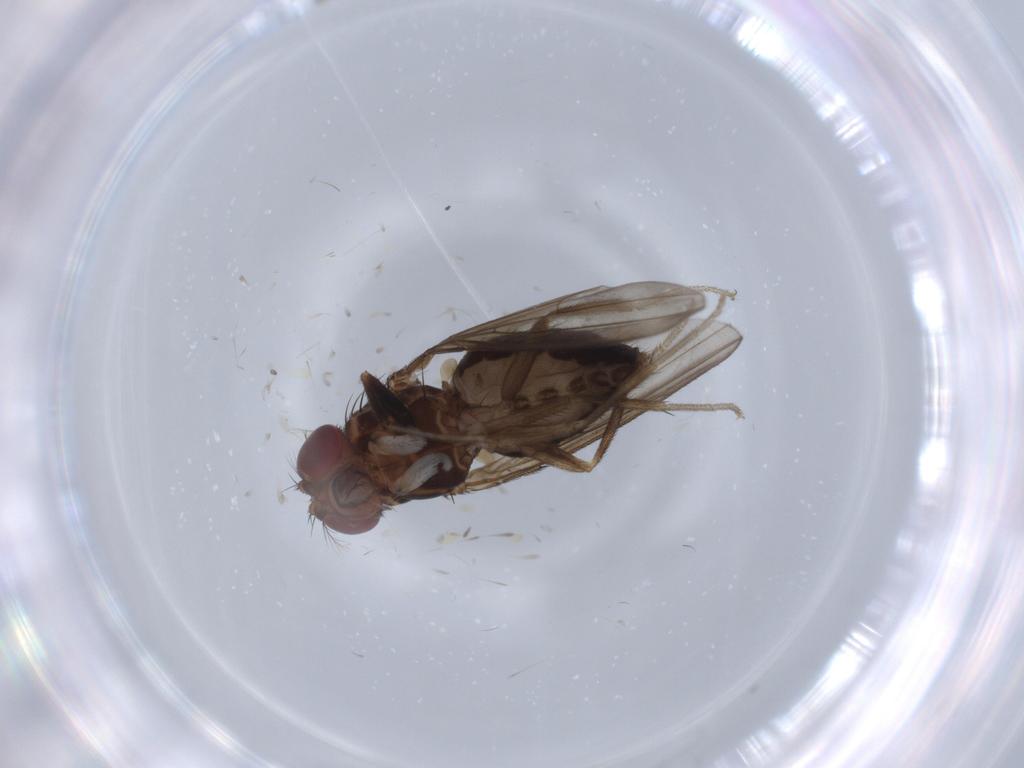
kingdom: Animalia
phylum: Arthropoda
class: Insecta
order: Diptera
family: Drosophilidae
